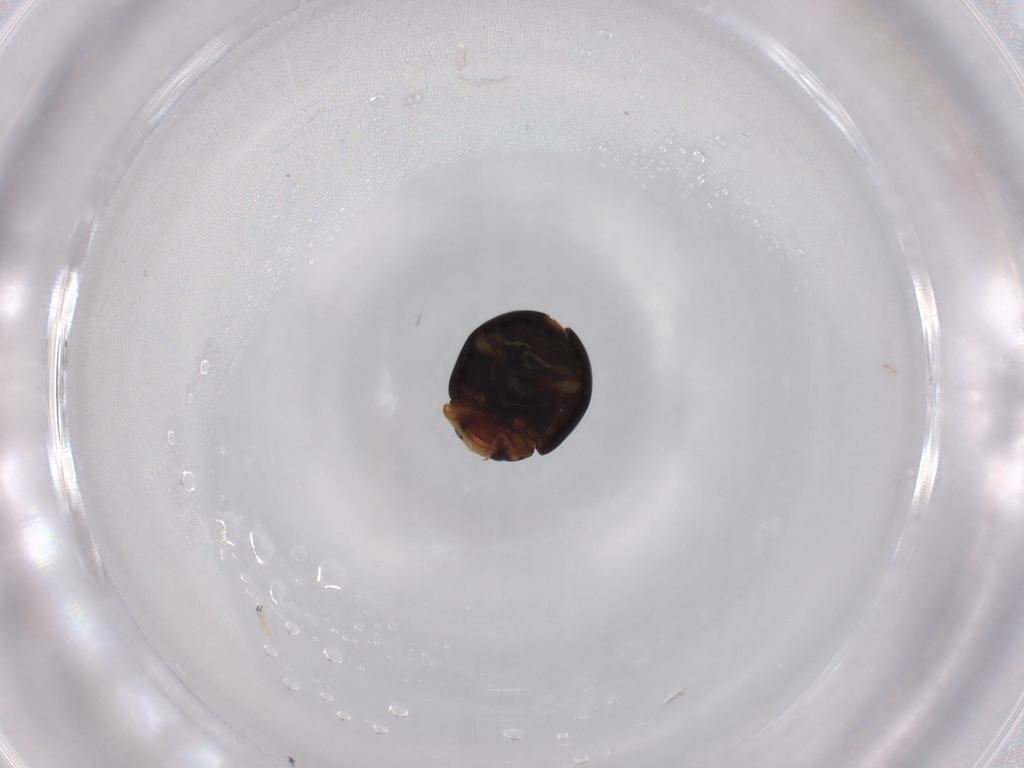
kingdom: Animalia
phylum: Arthropoda
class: Insecta
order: Coleoptera
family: Coccinellidae
